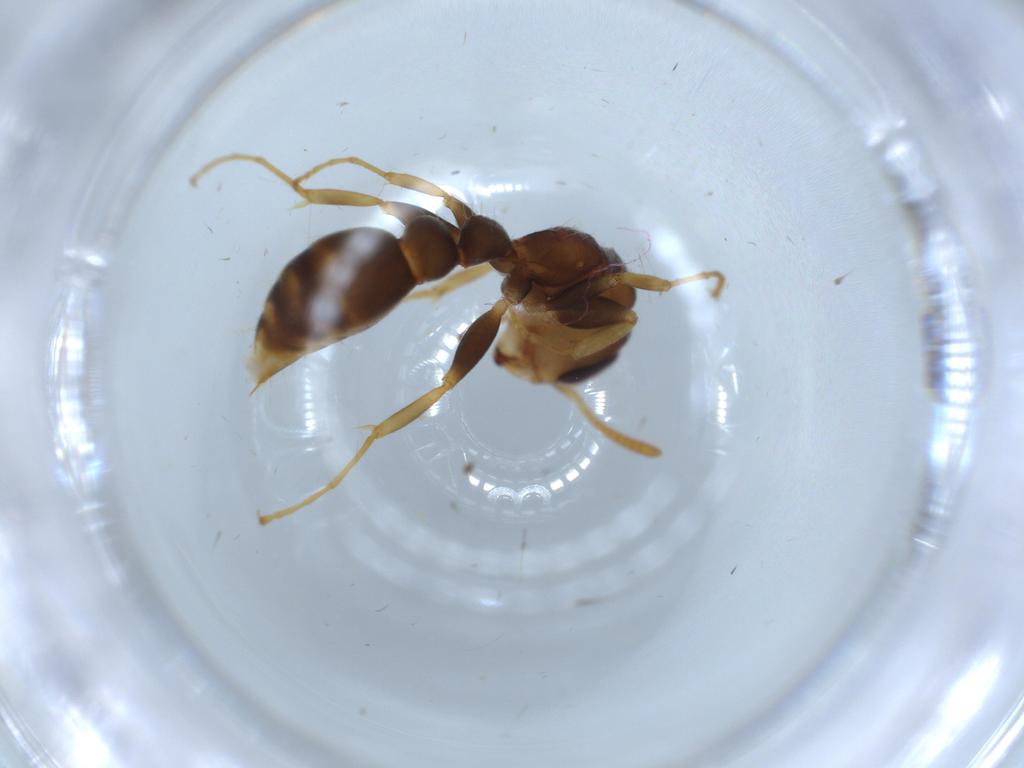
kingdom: Animalia
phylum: Arthropoda
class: Insecta
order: Hymenoptera
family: Formicidae
